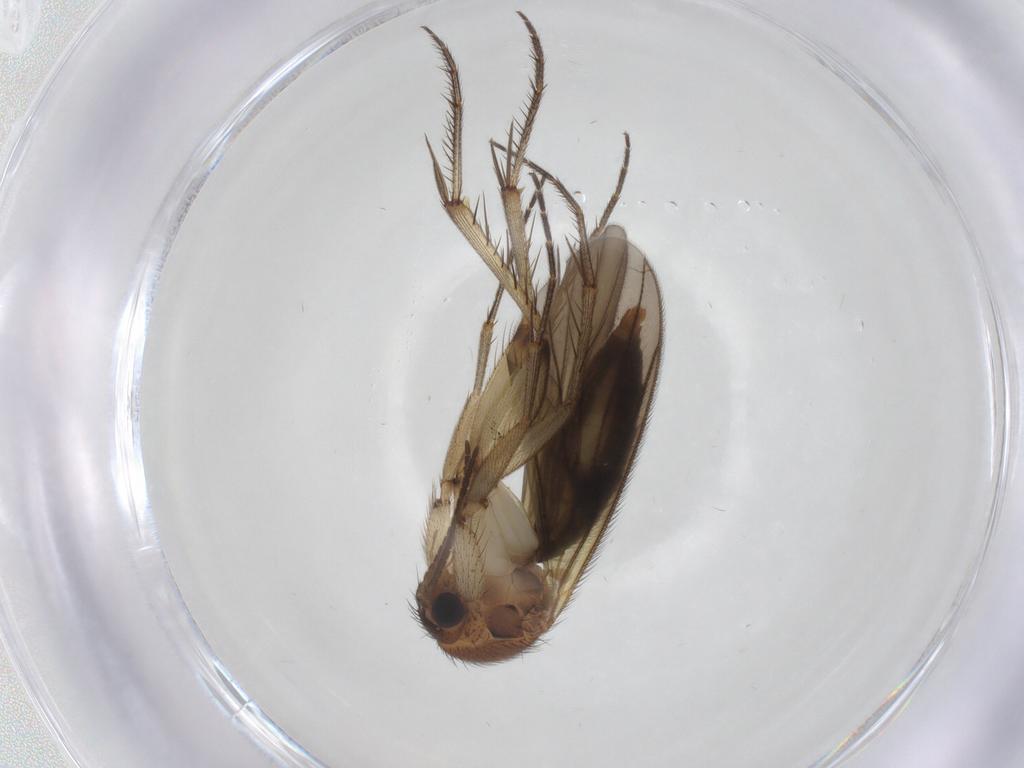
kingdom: Animalia
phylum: Arthropoda
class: Insecta
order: Diptera
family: Mycetophilidae
